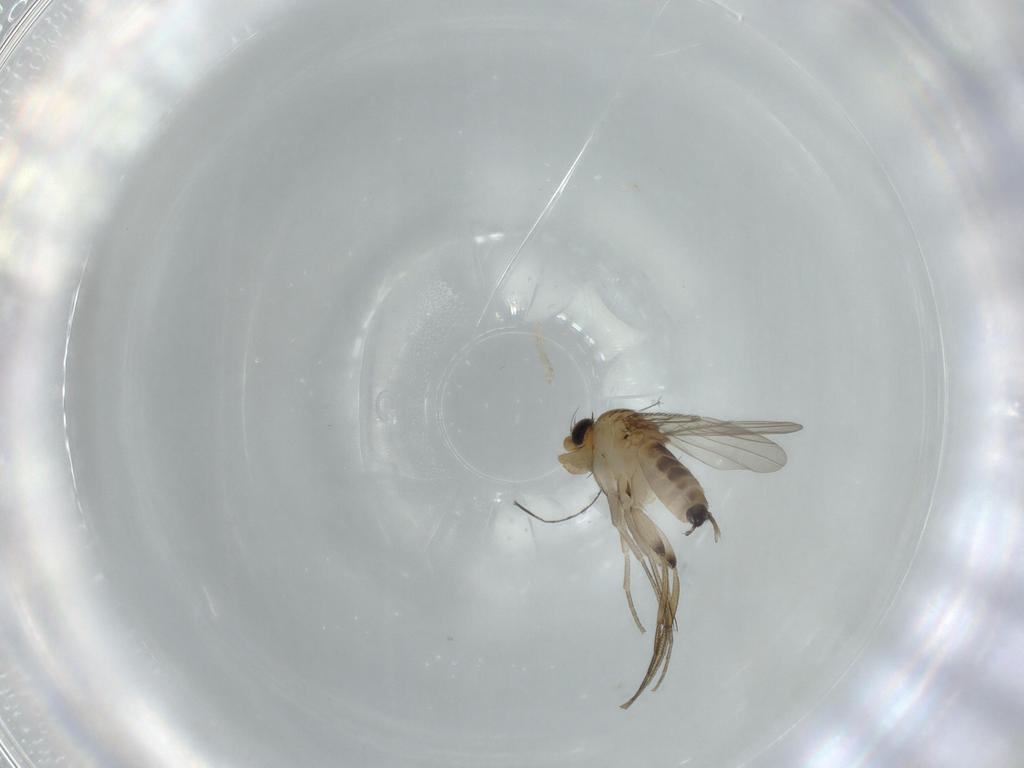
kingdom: Animalia
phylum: Arthropoda
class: Insecta
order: Diptera
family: Phoridae
